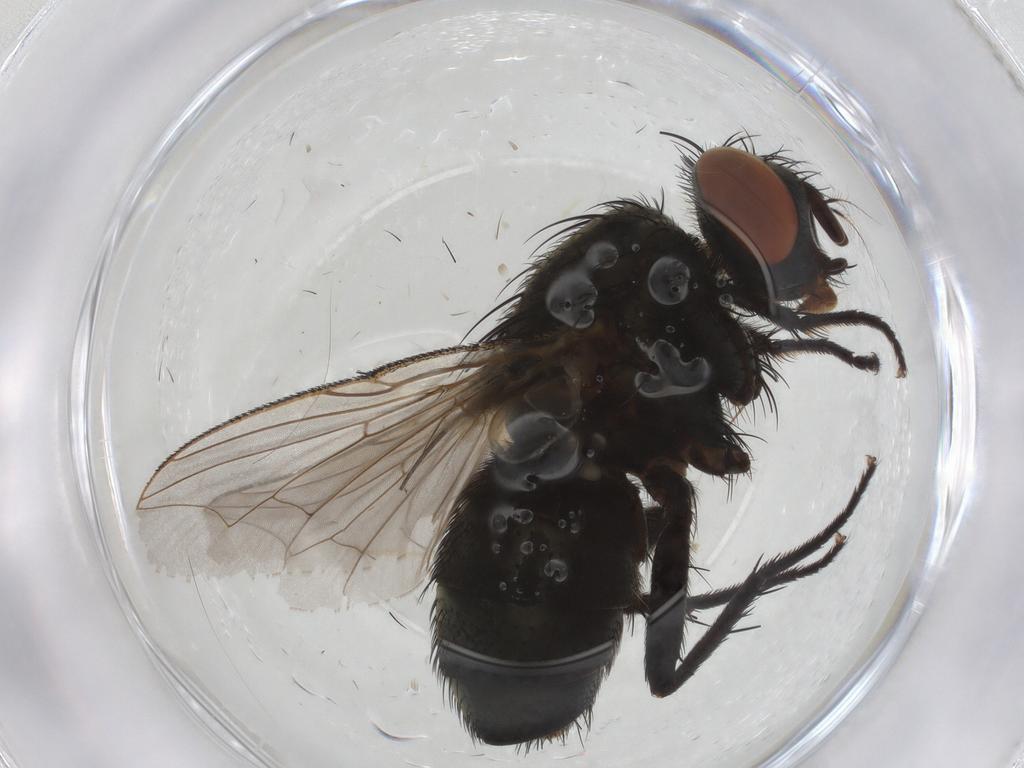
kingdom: Animalia
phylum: Arthropoda
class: Insecta
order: Diptera
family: Sarcophagidae
